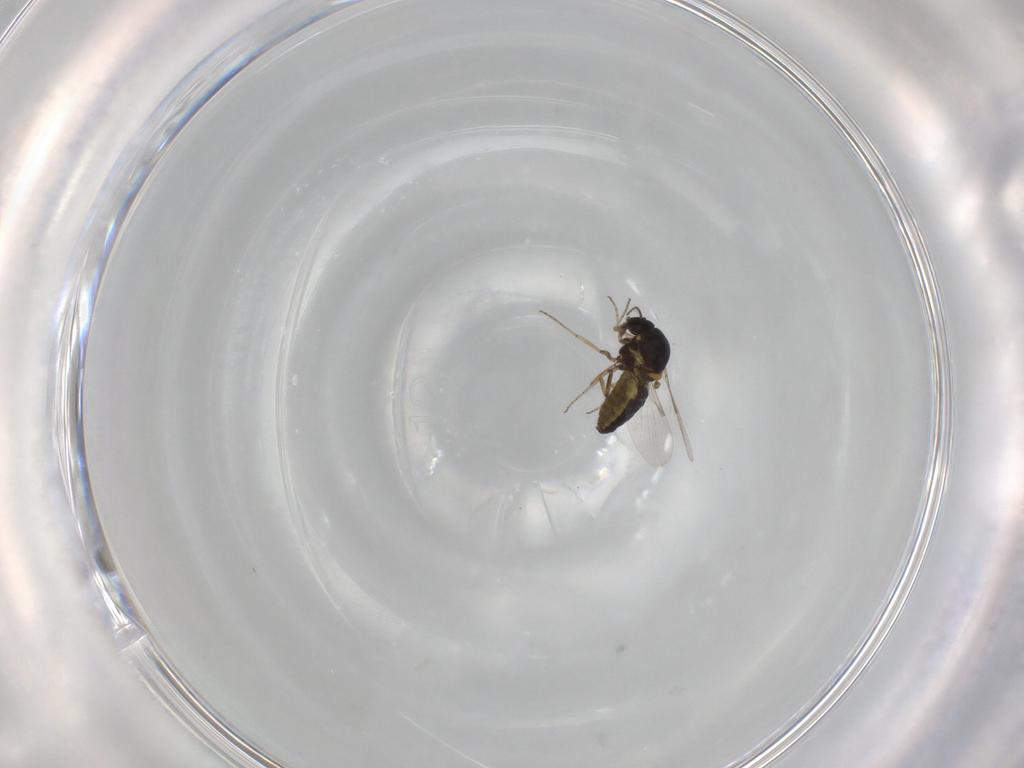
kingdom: Animalia
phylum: Arthropoda
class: Insecta
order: Diptera
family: Ceratopogonidae
